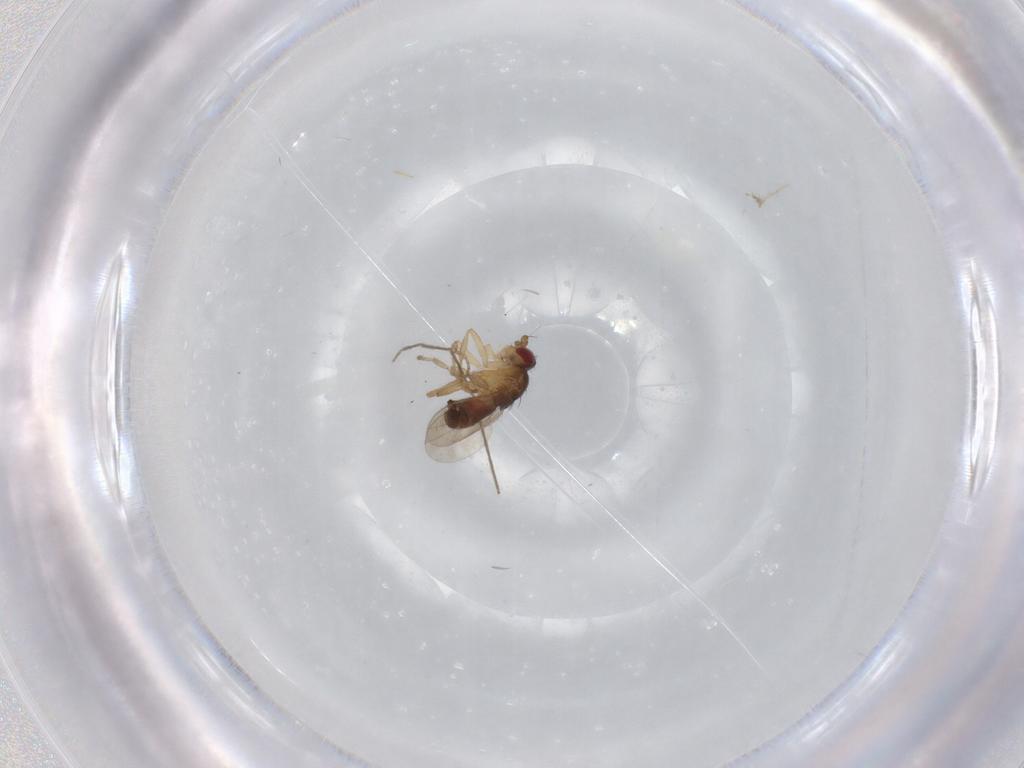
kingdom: Animalia
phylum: Arthropoda
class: Insecta
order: Diptera
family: Sphaeroceridae
